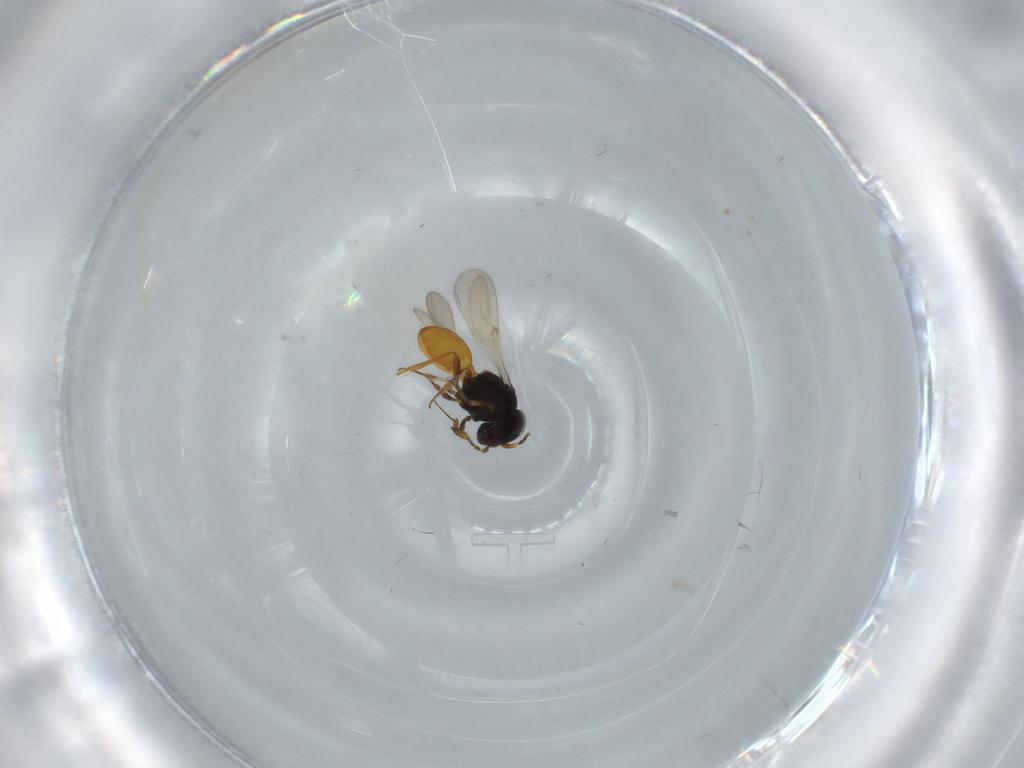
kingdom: Animalia
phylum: Arthropoda
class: Insecta
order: Hymenoptera
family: Scelionidae
